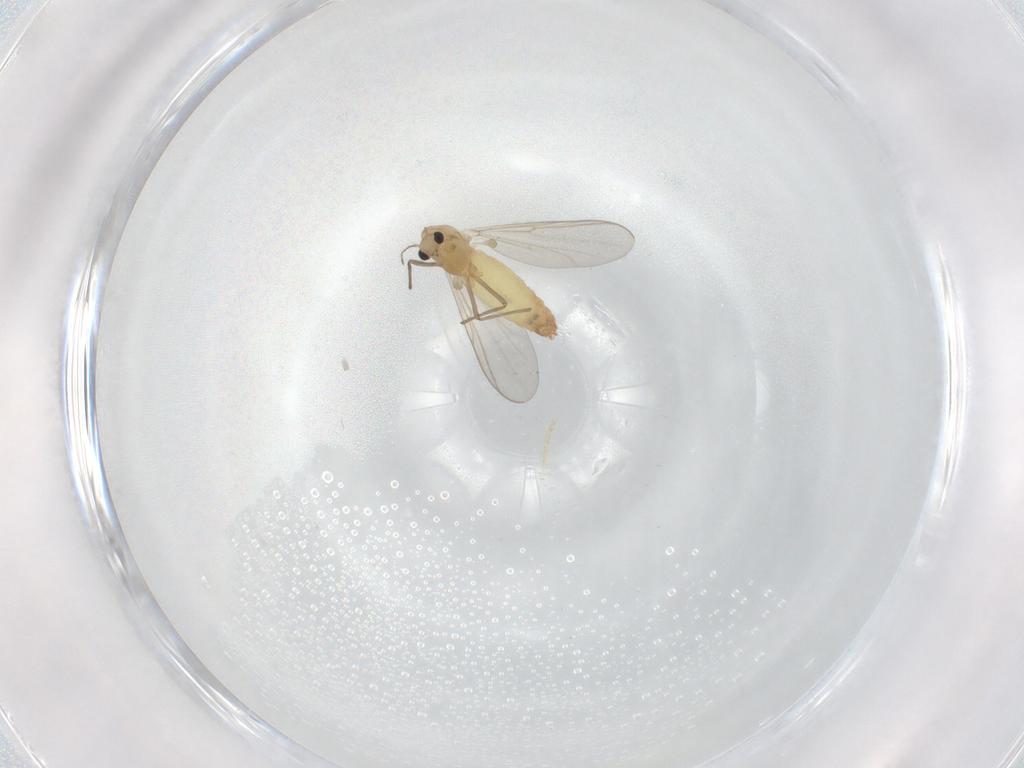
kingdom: Animalia
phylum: Arthropoda
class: Insecta
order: Diptera
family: Chironomidae
